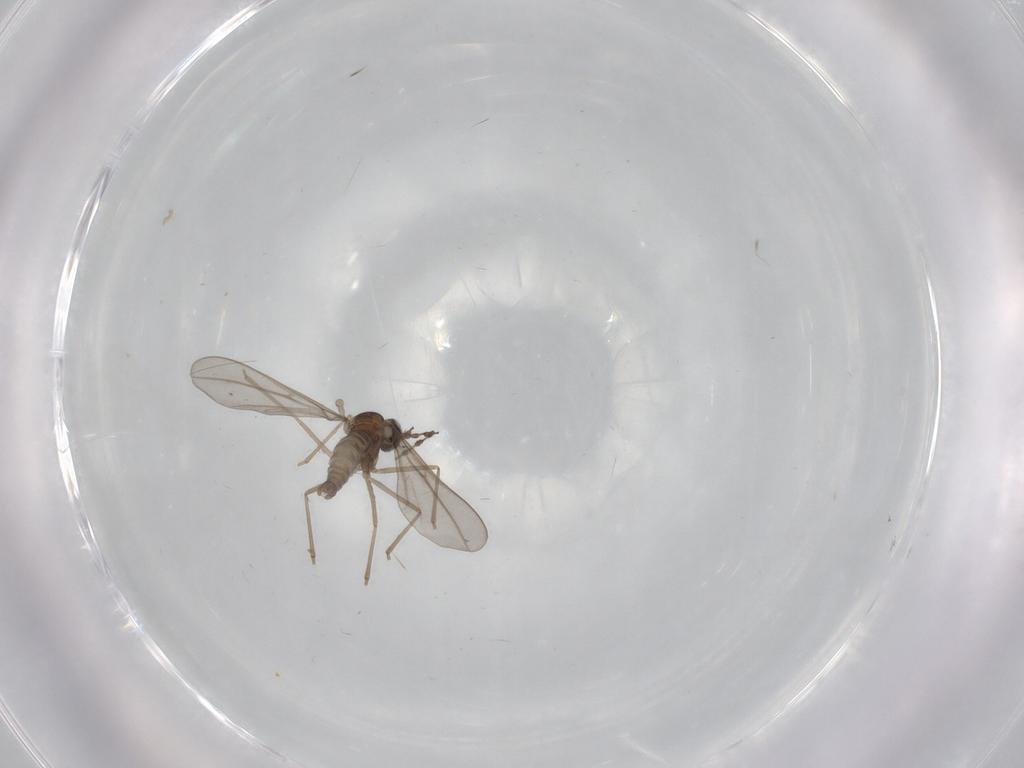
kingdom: Animalia
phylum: Arthropoda
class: Insecta
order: Diptera
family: Cecidomyiidae
